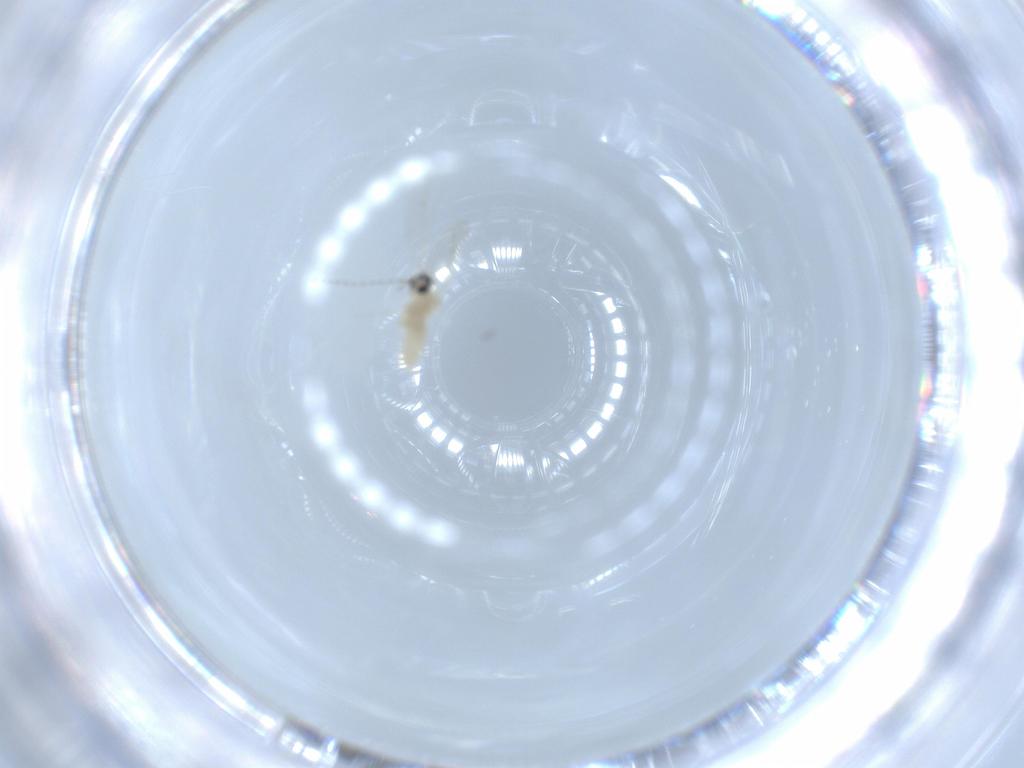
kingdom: Animalia
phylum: Arthropoda
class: Insecta
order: Diptera
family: Cecidomyiidae
